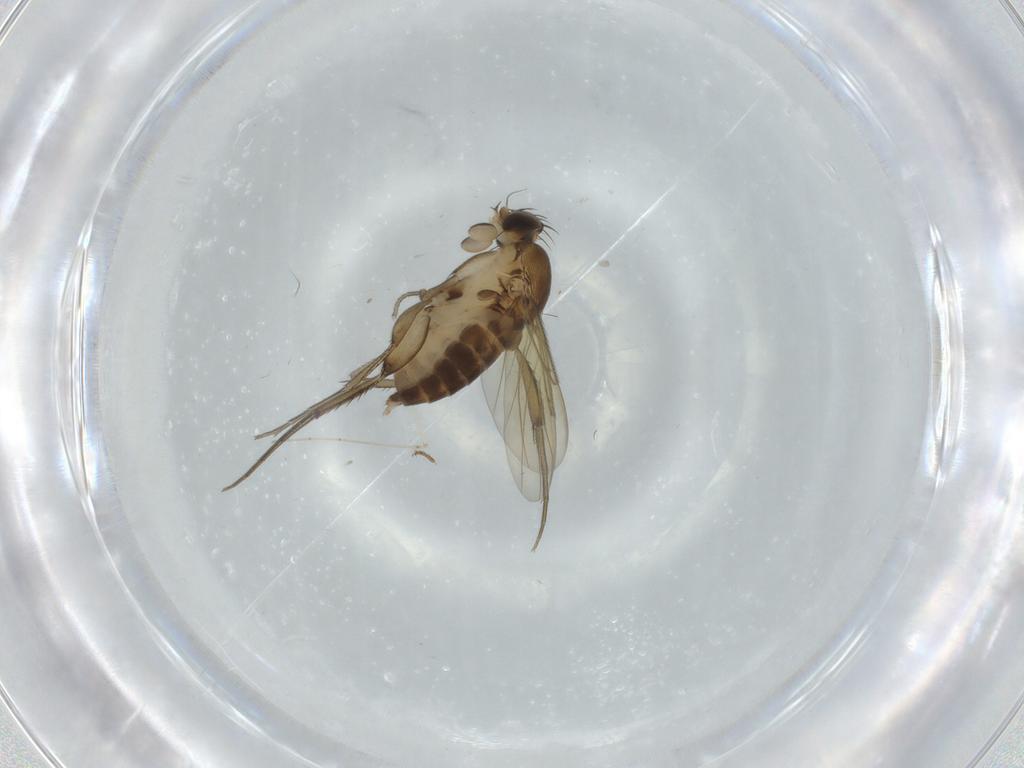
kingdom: Animalia
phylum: Arthropoda
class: Insecta
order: Diptera
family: Phoridae
